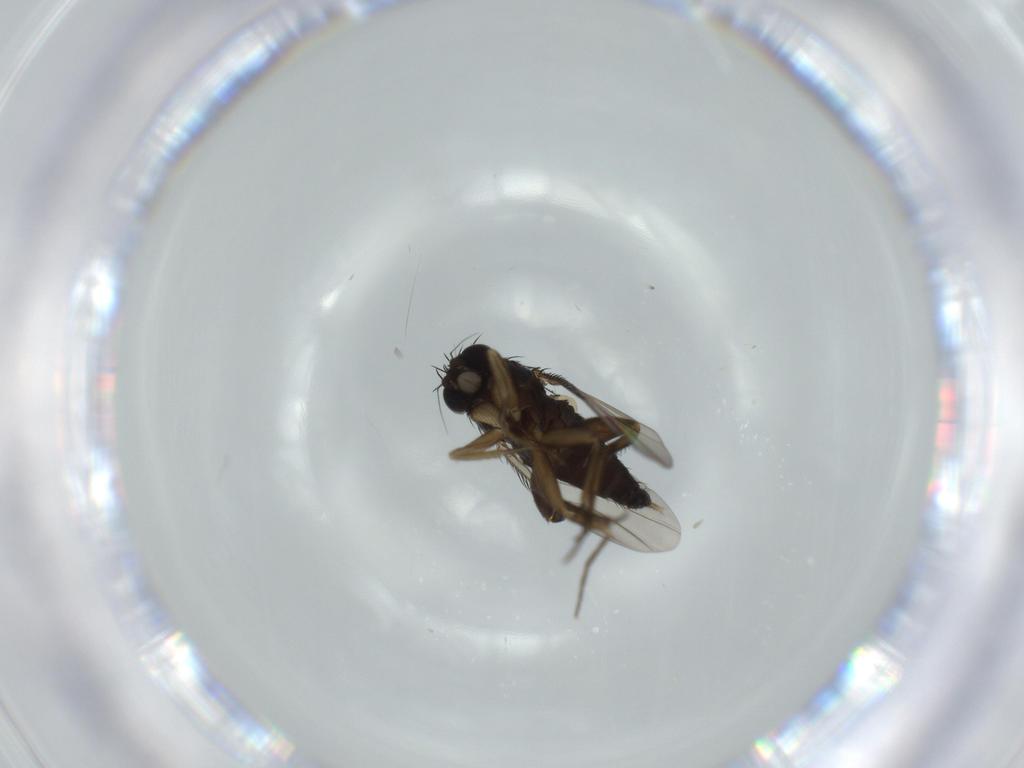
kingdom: Animalia
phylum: Arthropoda
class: Insecta
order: Diptera
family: Phoridae
